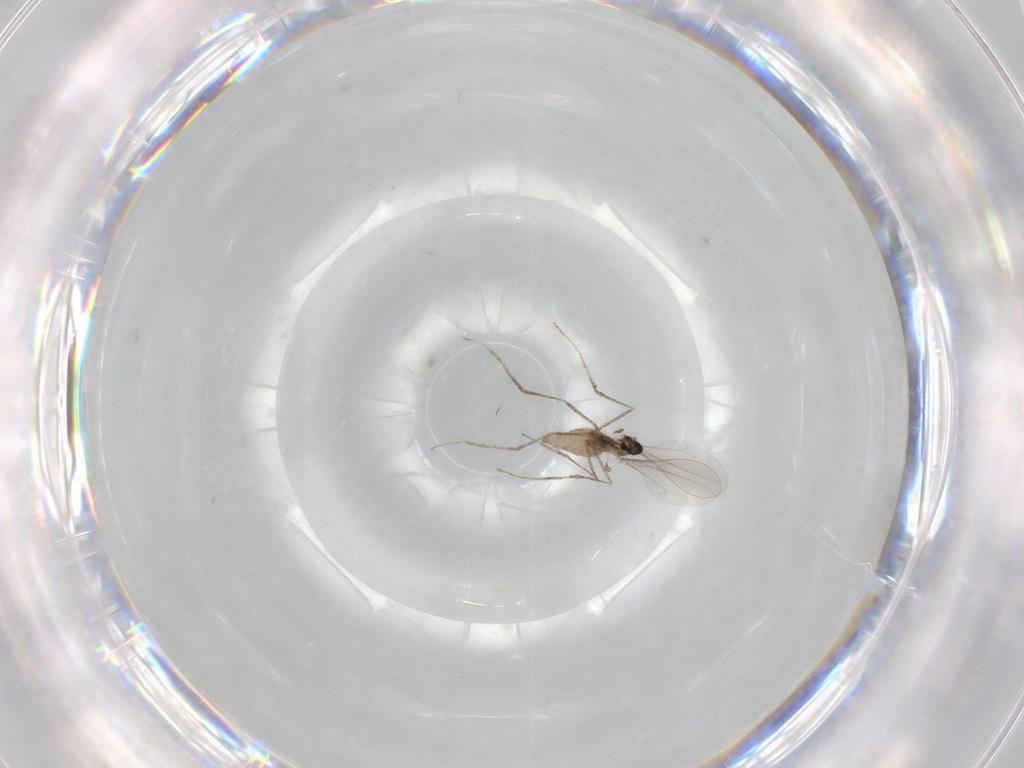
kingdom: Animalia
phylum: Arthropoda
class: Insecta
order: Diptera
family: Cecidomyiidae
